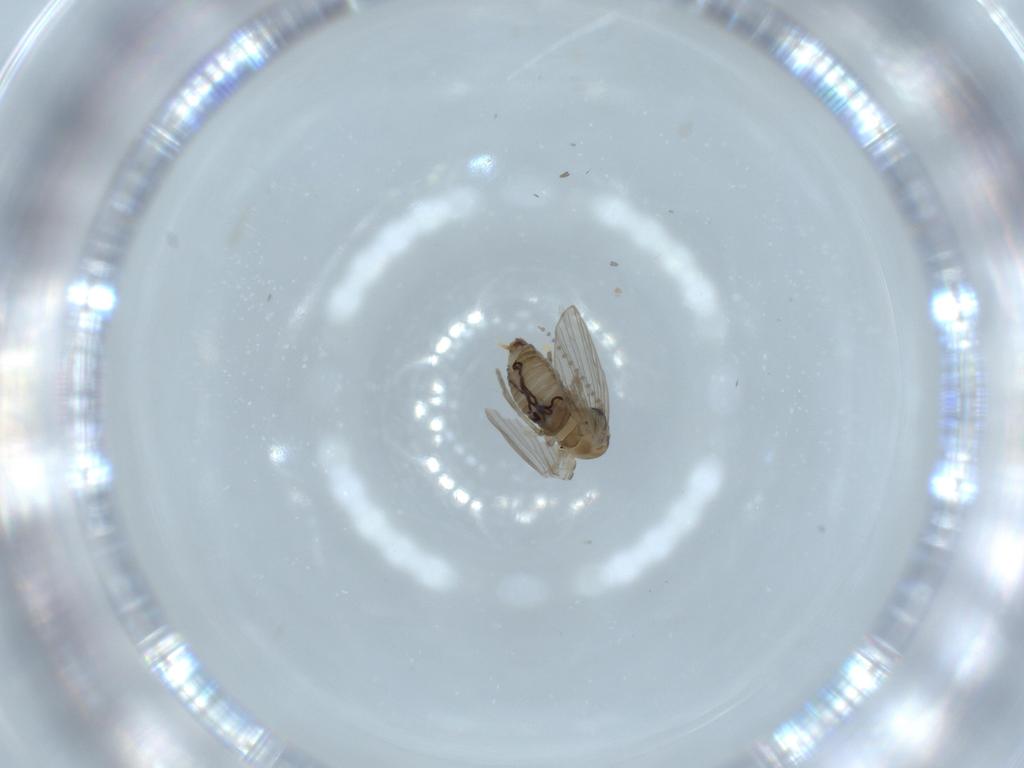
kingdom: Animalia
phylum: Arthropoda
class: Insecta
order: Diptera
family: Psychodidae
